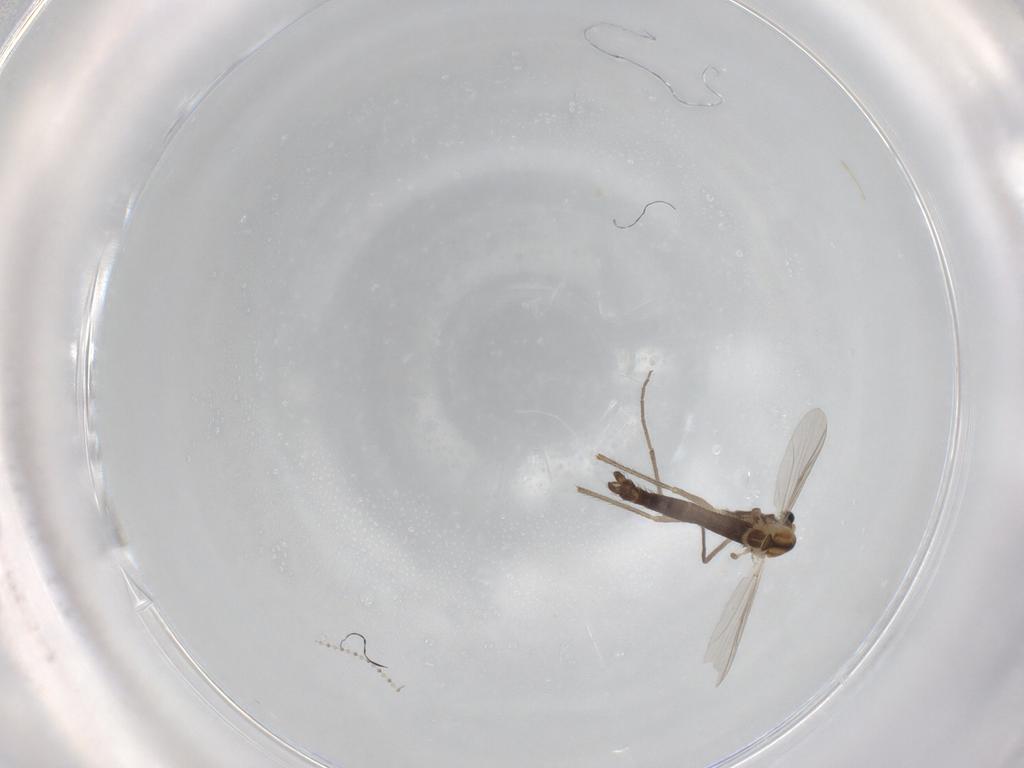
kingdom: Animalia
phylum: Arthropoda
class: Insecta
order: Diptera
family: Chironomidae
